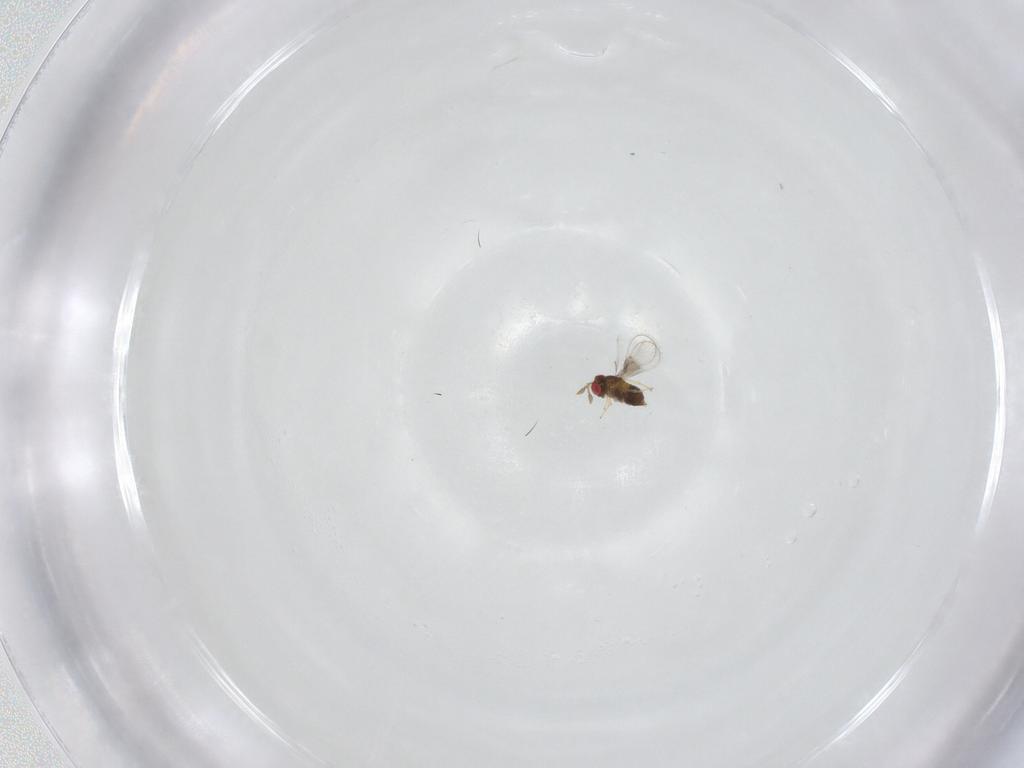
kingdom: Animalia
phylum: Arthropoda
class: Insecta
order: Hymenoptera
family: Trichogrammatidae
